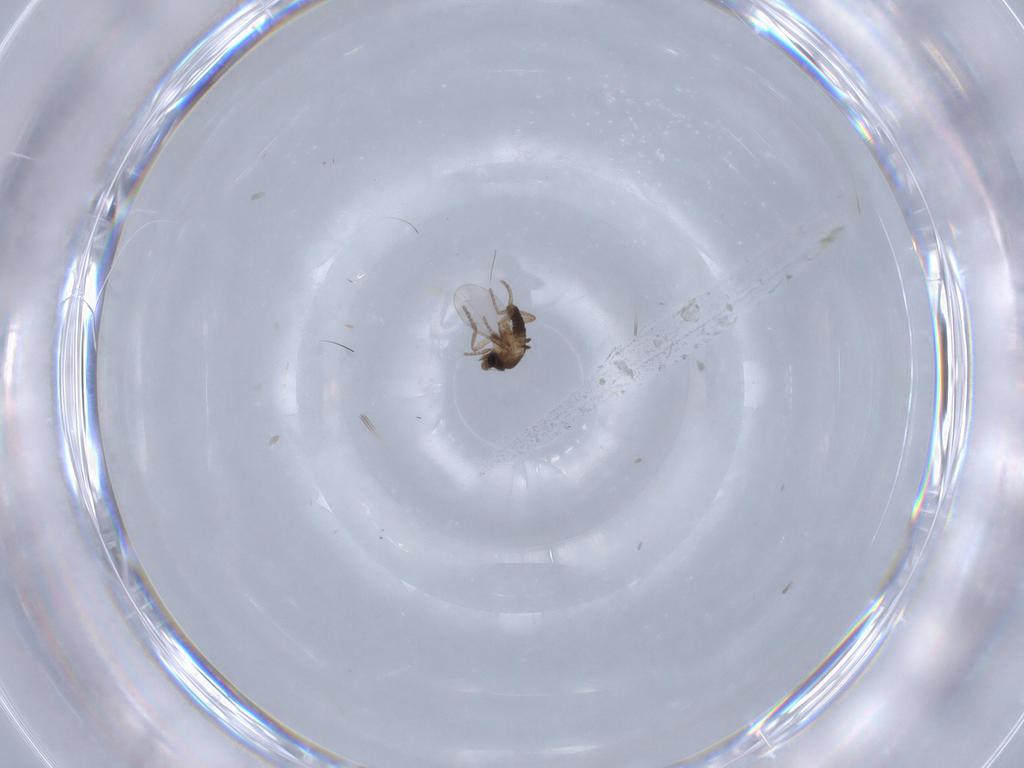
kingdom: Animalia
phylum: Arthropoda
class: Insecta
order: Diptera
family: Phoridae
